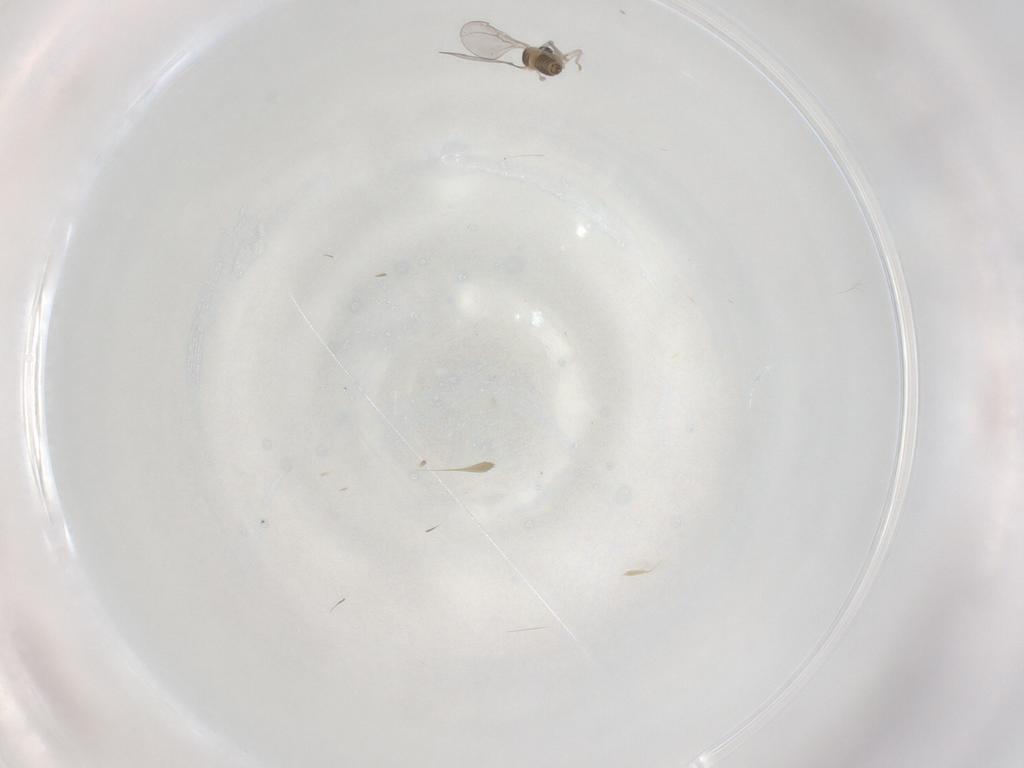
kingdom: Animalia
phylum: Arthropoda
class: Insecta
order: Diptera
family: Cecidomyiidae
